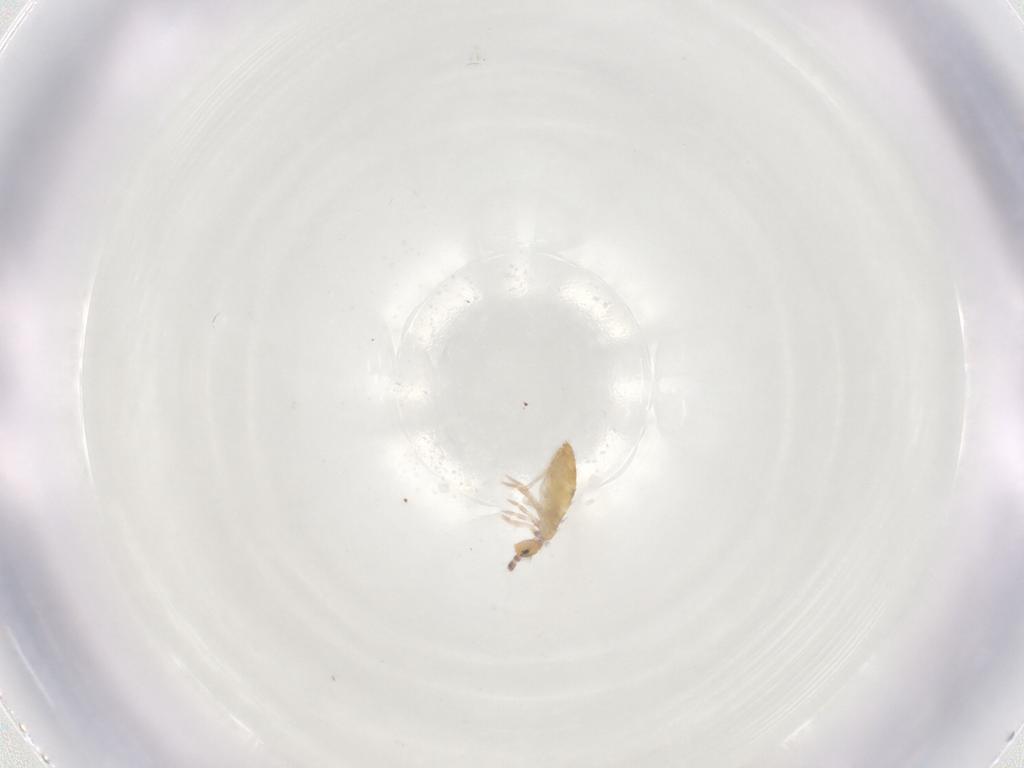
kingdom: Animalia
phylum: Arthropoda
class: Collembola
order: Entomobryomorpha
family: Entomobryidae
